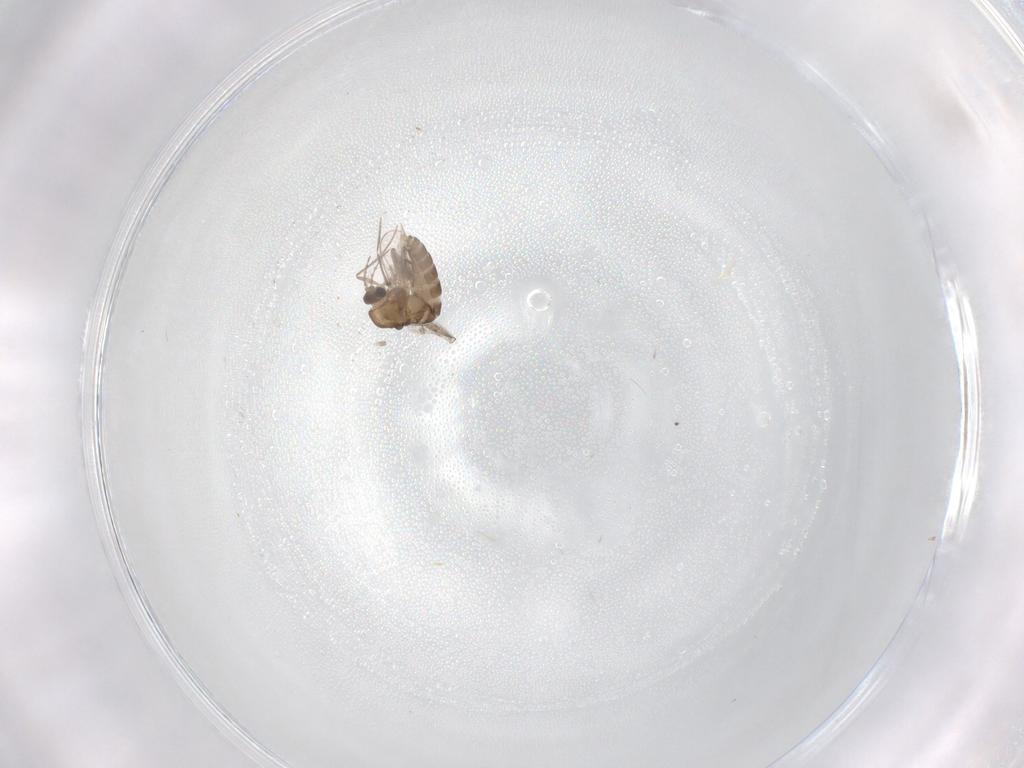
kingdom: Animalia
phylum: Arthropoda
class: Insecta
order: Diptera
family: Chironomidae
